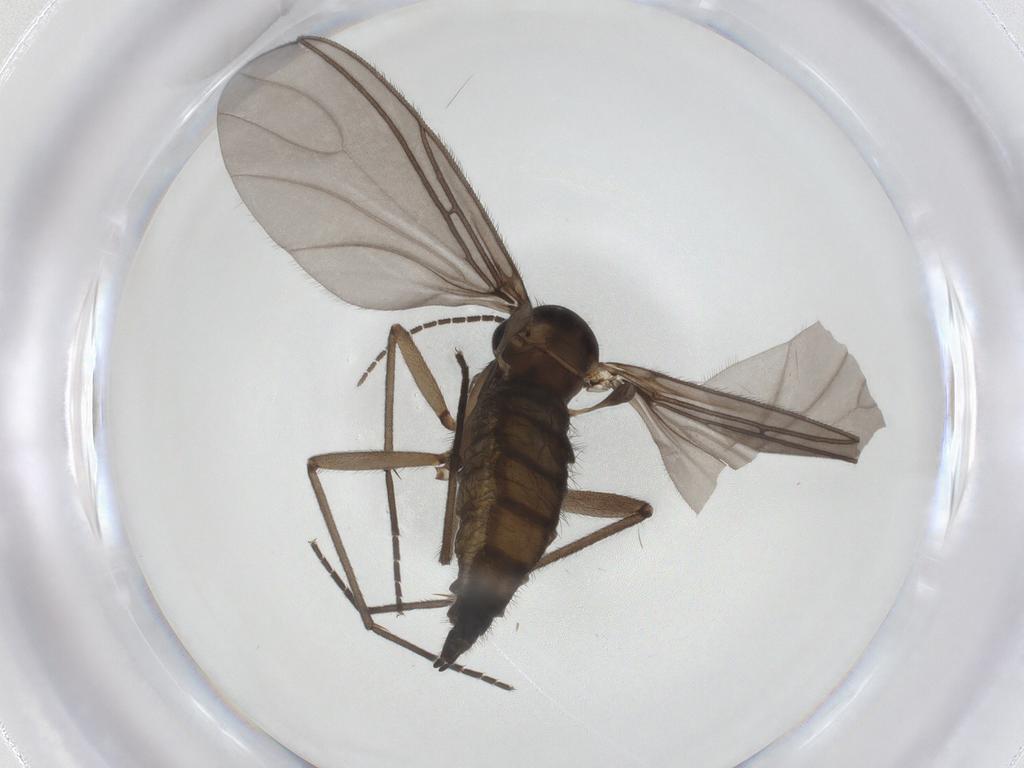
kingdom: Animalia
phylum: Arthropoda
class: Insecta
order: Diptera
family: Sciaridae
